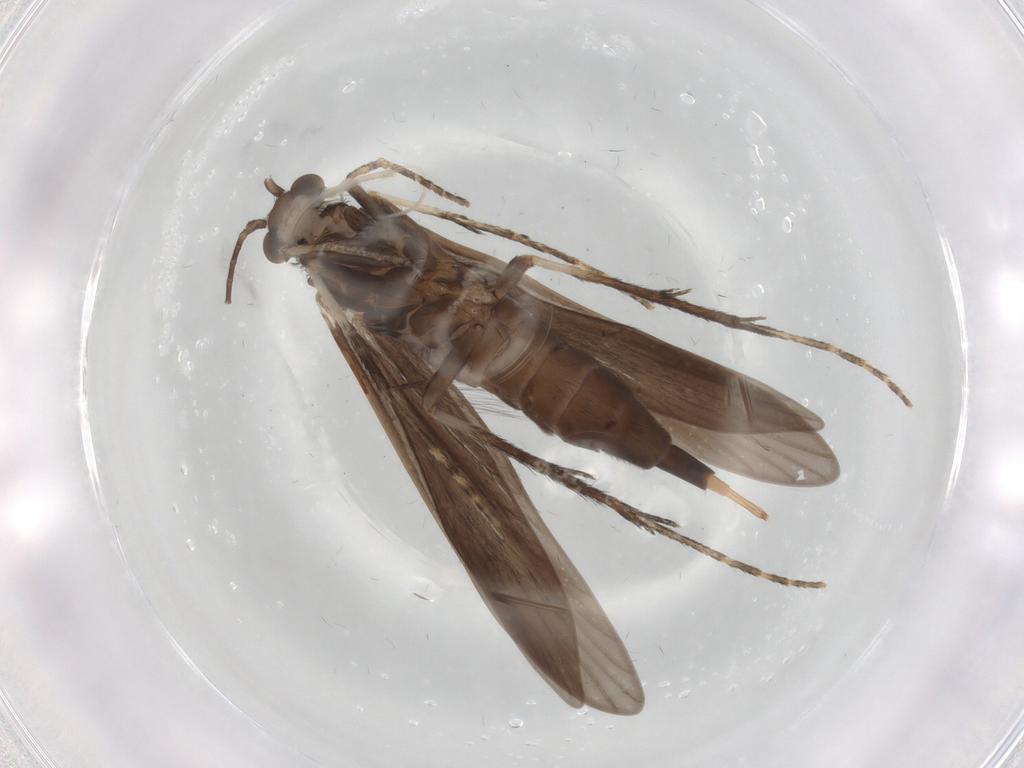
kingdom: Animalia
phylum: Arthropoda
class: Insecta
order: Trichoptera
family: Xiphocentronidae
